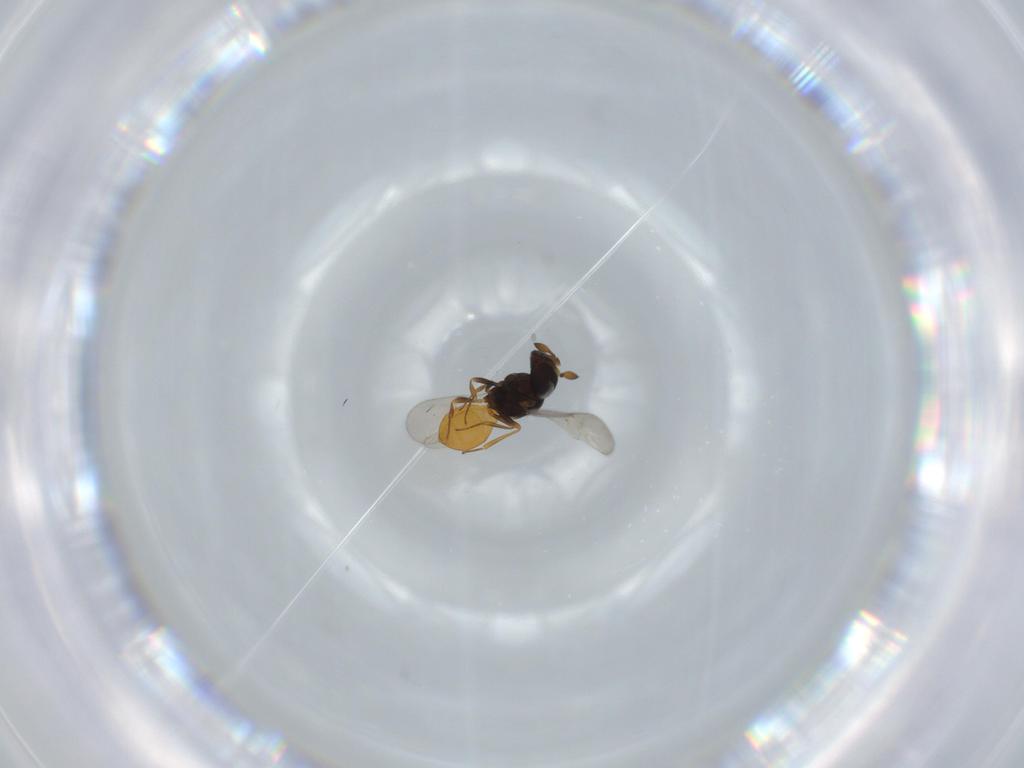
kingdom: Animalia
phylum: Arthropoda
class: Insecta
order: Hymenoptera
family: Scelionidae
